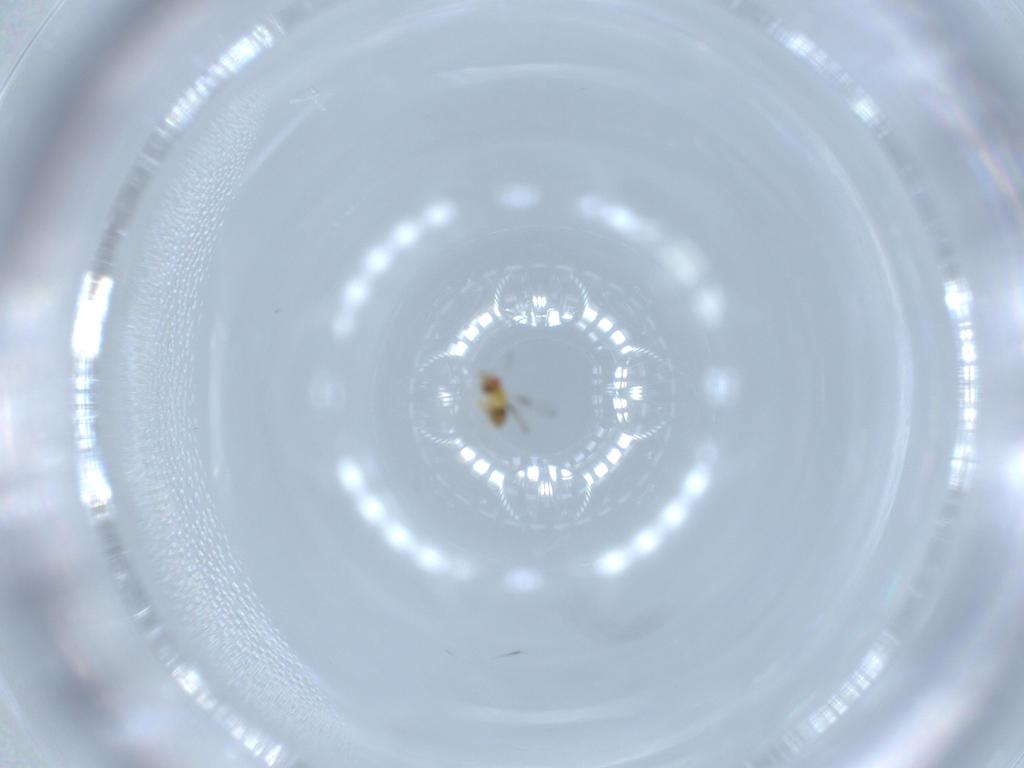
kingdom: Animalia
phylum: Arthropoda
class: Insecta
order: Hymenoptera
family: Trichogrammatidae
